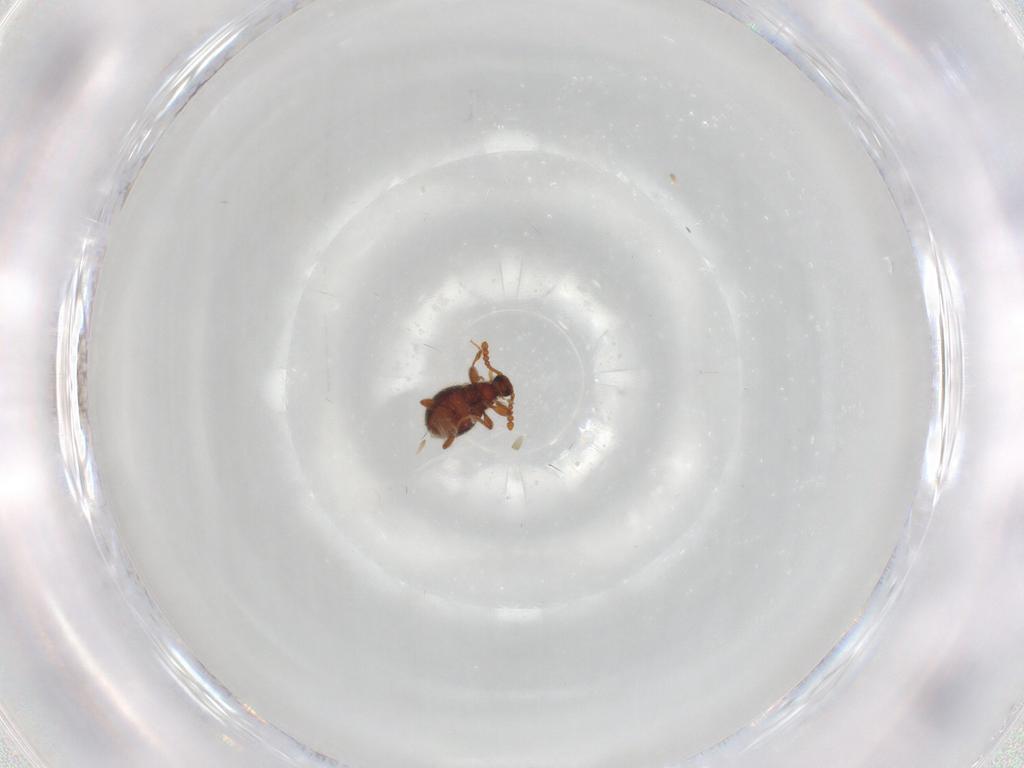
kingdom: Animalia
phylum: Arthropoda
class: Insecta
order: Coleoptera
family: Staphylinidae
